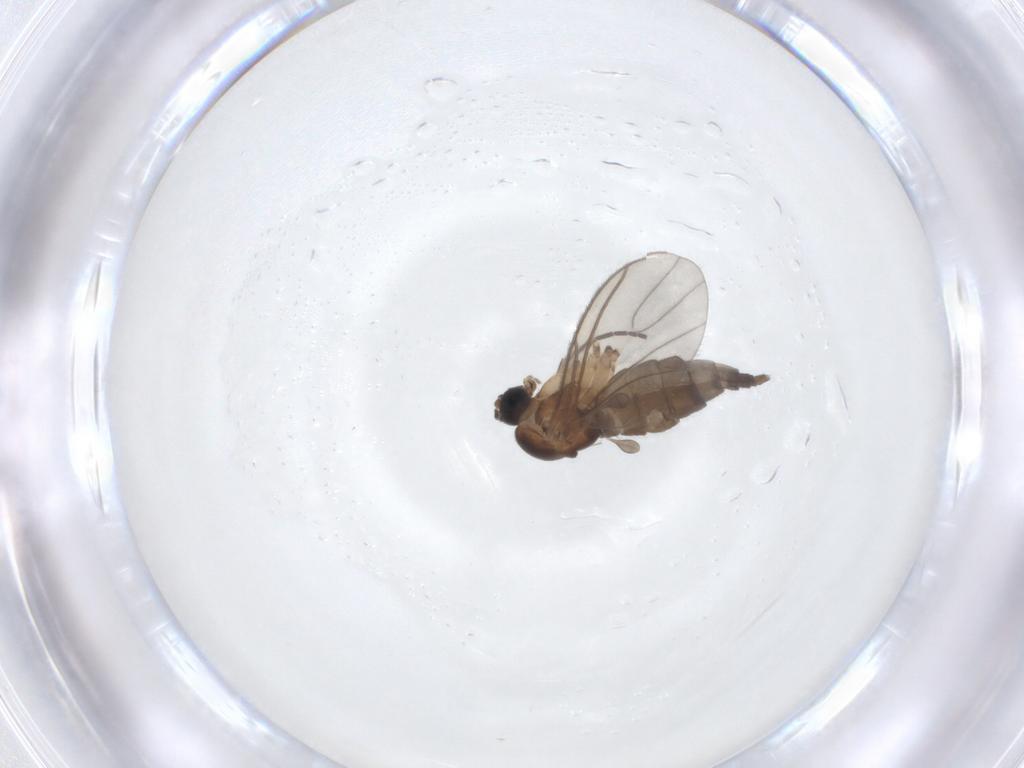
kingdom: Animalia
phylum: Arthropoda
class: Insecta
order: Diptera
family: Sciaridae
